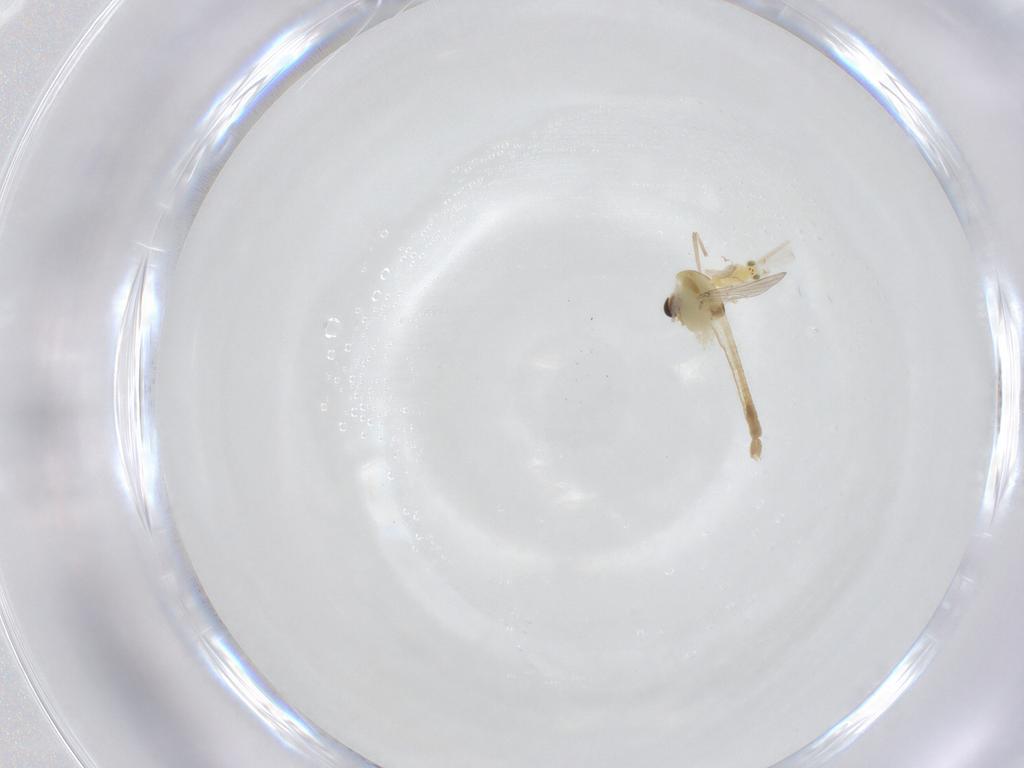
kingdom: Animalia
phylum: Arthropoda
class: Insecta
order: Diptera
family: Chironomidae
